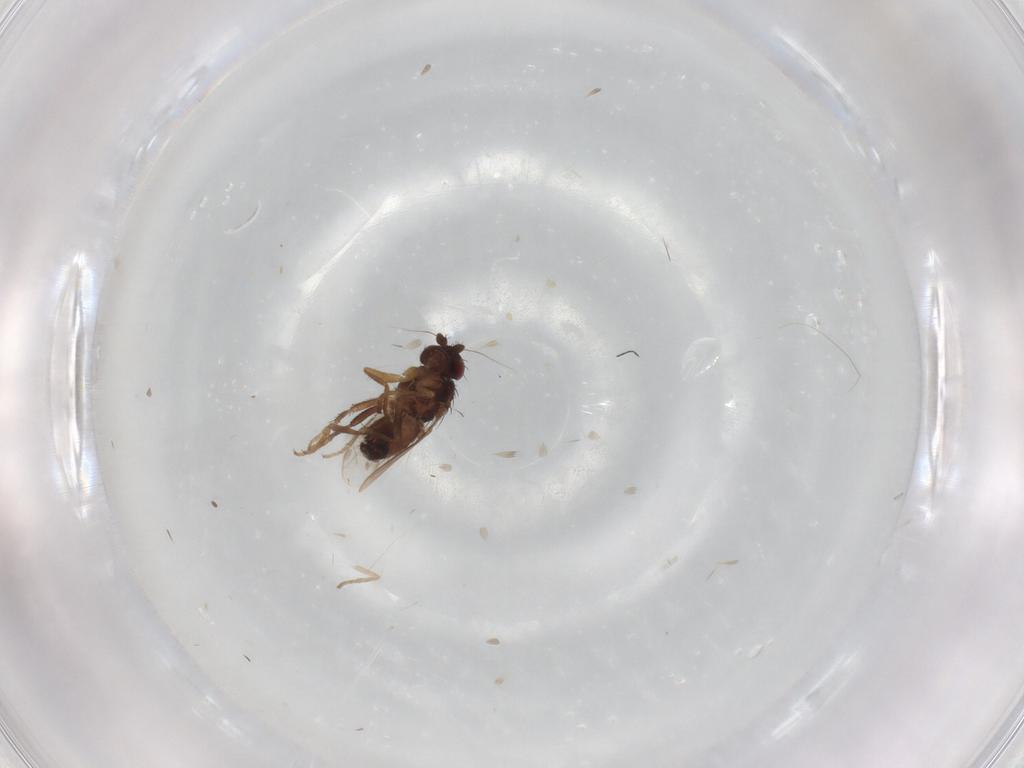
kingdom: Animalia
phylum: Arthropoda
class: Insecta
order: Diptera
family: Sphaeroceridae
